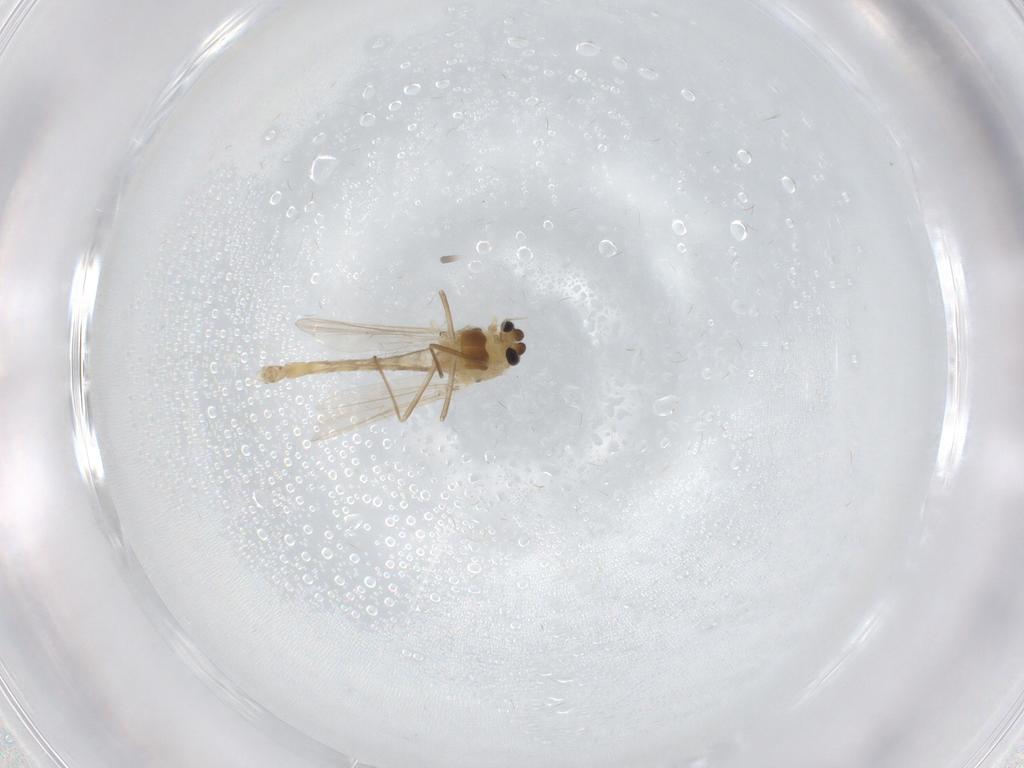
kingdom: Animalia
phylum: Arthropoda
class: Insecta
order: Diptera
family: Chironomidae
